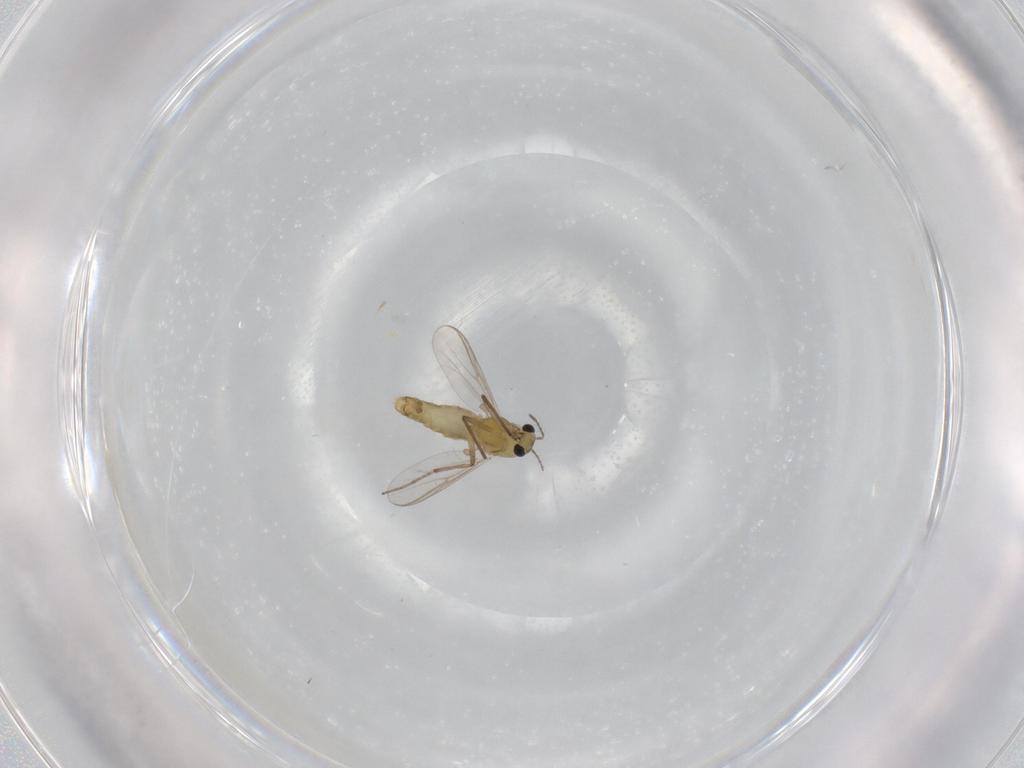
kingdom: Animalia
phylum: Arthropoda
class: Insecta
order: Diptera
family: Chironomidae
